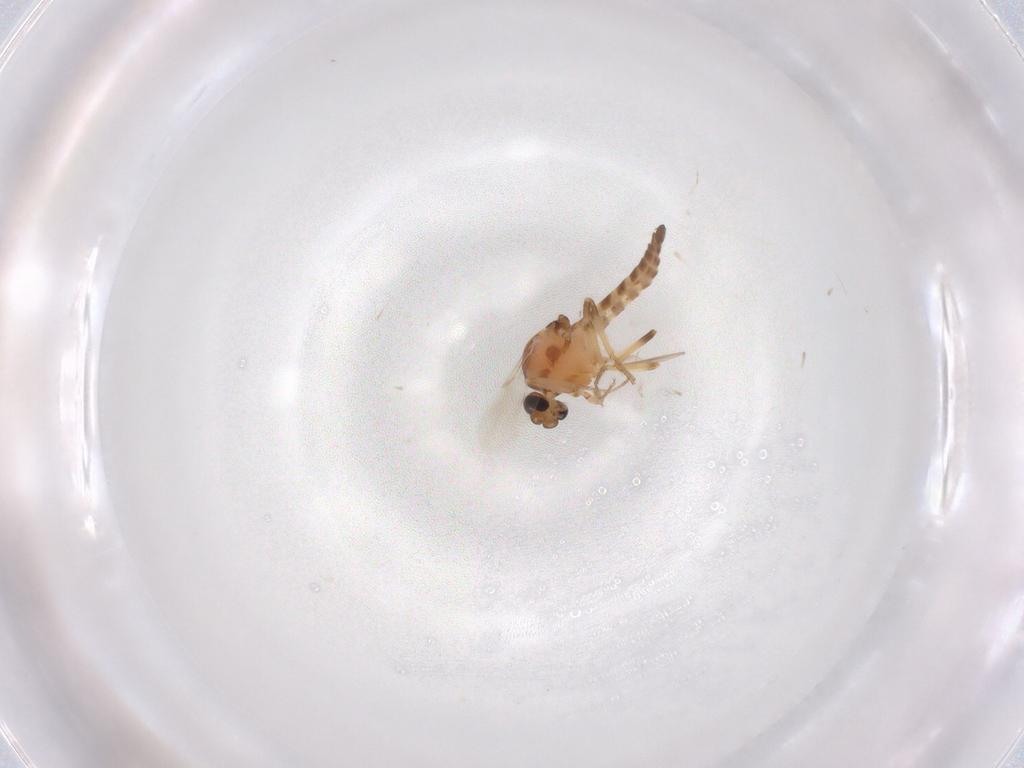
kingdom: Animalia
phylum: Arthropoda
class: Insecta
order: Diptera
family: Ceratopogonidae
